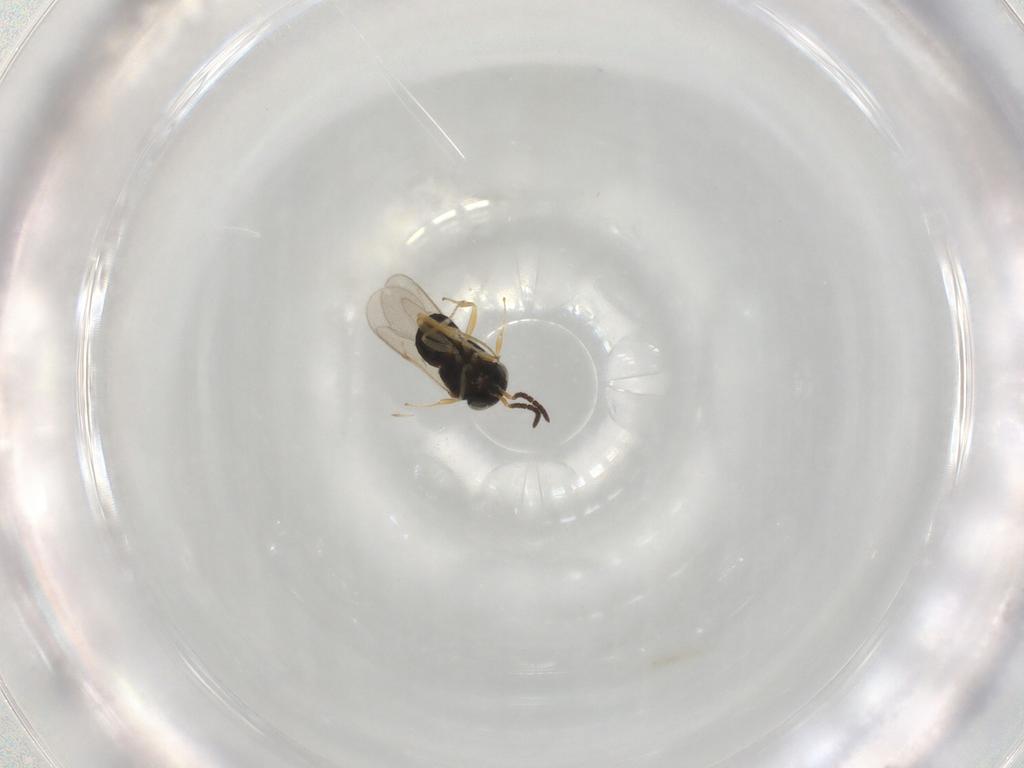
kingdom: Animalia
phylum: Arthropoda
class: Insecta
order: Hymenoptera
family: Scelionidae
